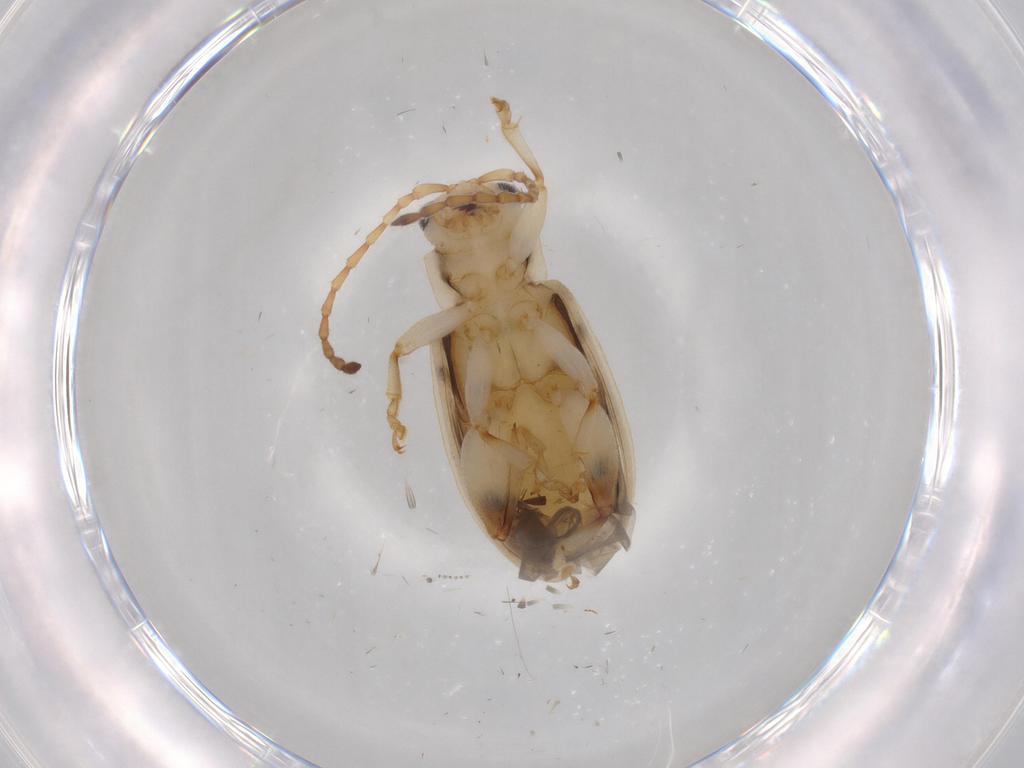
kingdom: Animalia
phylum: Arthropoda
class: Insecta
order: Coleoptera
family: Chrysomelidae
